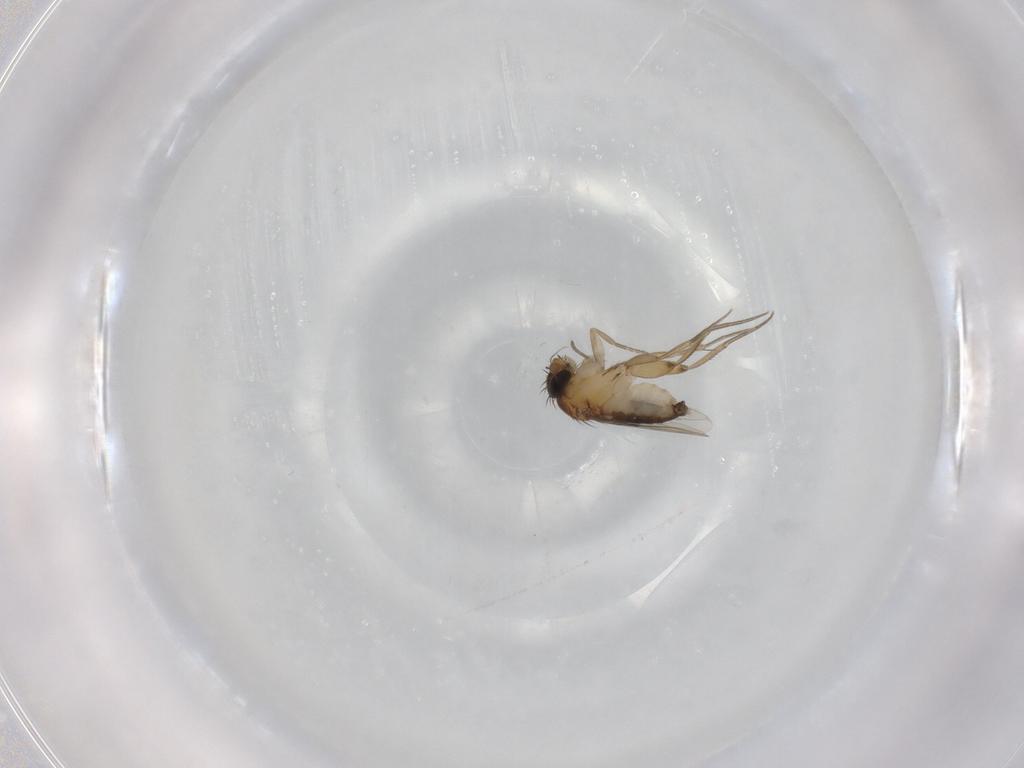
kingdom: Animalia
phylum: Arthropoda
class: Insecta
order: Diptera
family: Phoridae
